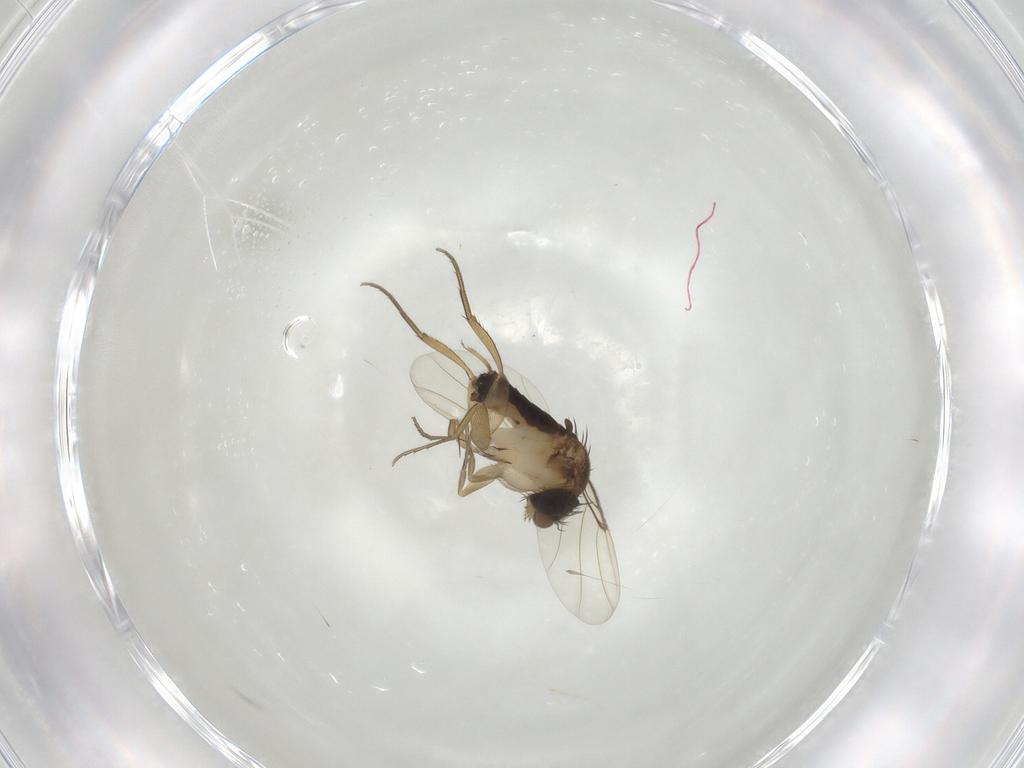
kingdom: Animalia
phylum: Arthropoda
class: Insecta
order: Diptera
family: Phoridae
